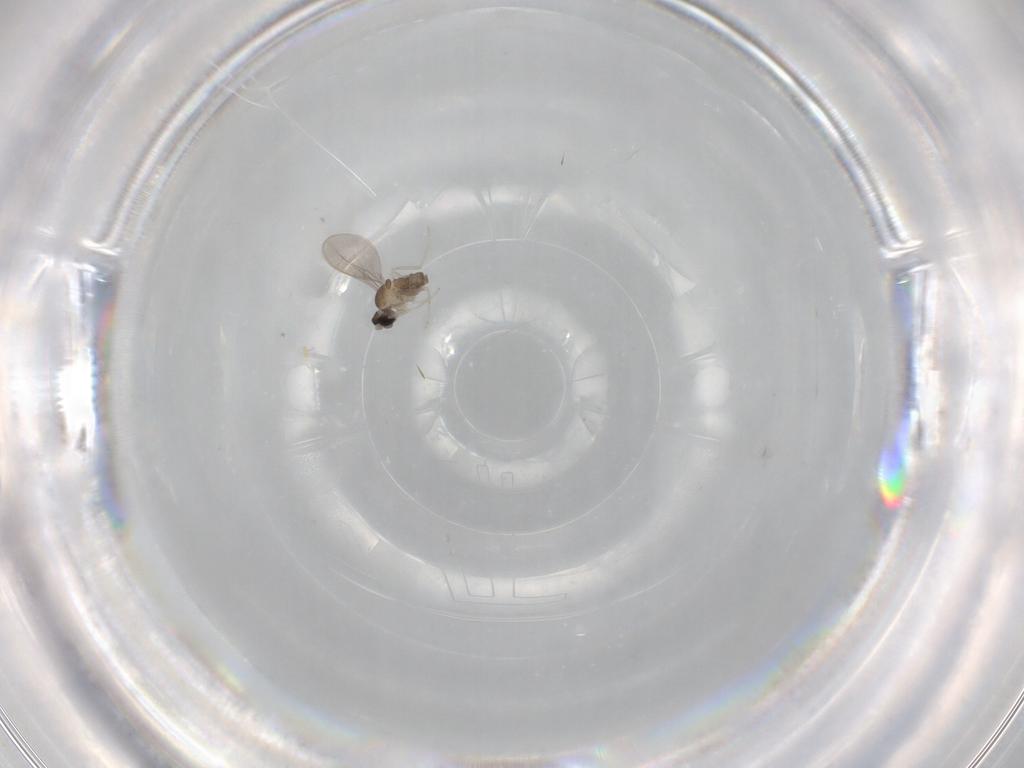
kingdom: Animalia
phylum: Arthropoda
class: Insecta
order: Diptera
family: Cecidomyiidae
